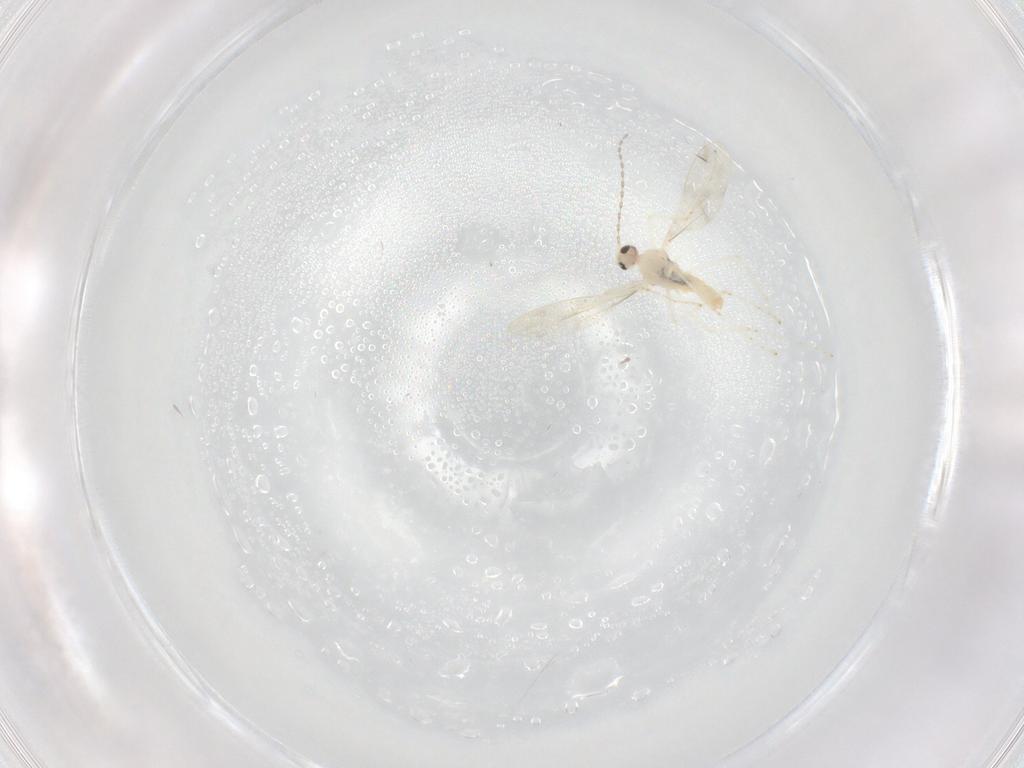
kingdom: Animalia
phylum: Arthropoda
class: Insecta
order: Diptera
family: Cecidomyiidae
